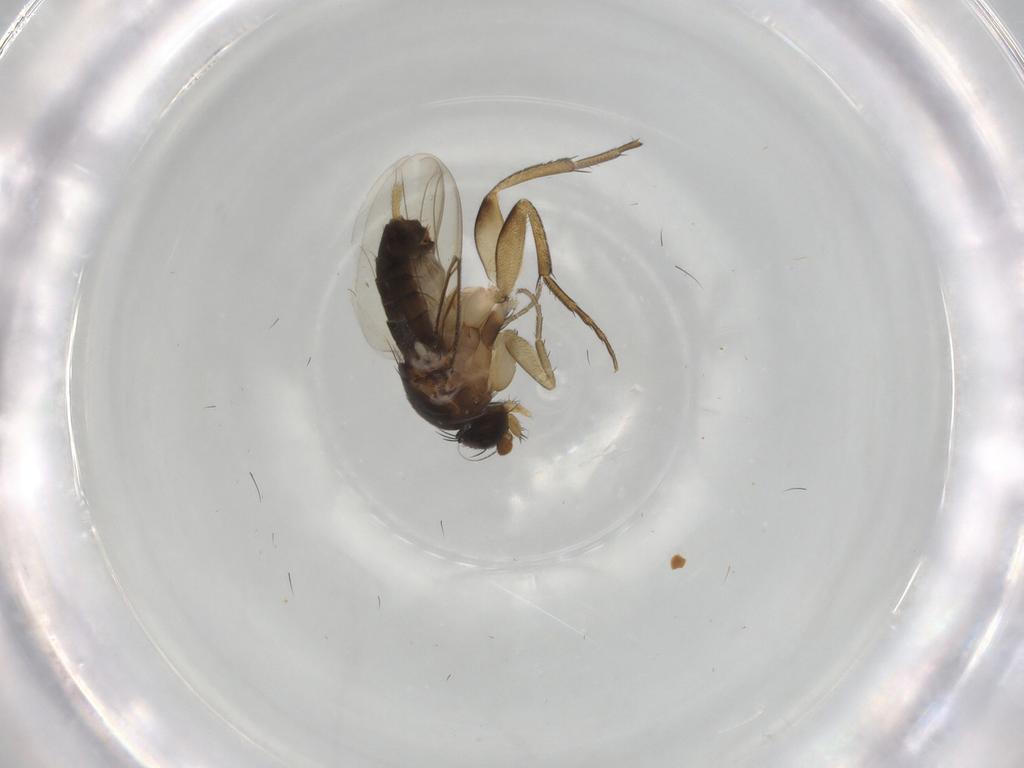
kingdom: Animalia
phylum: Arthropoda
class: Insecta
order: Diptera
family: Phoridae
